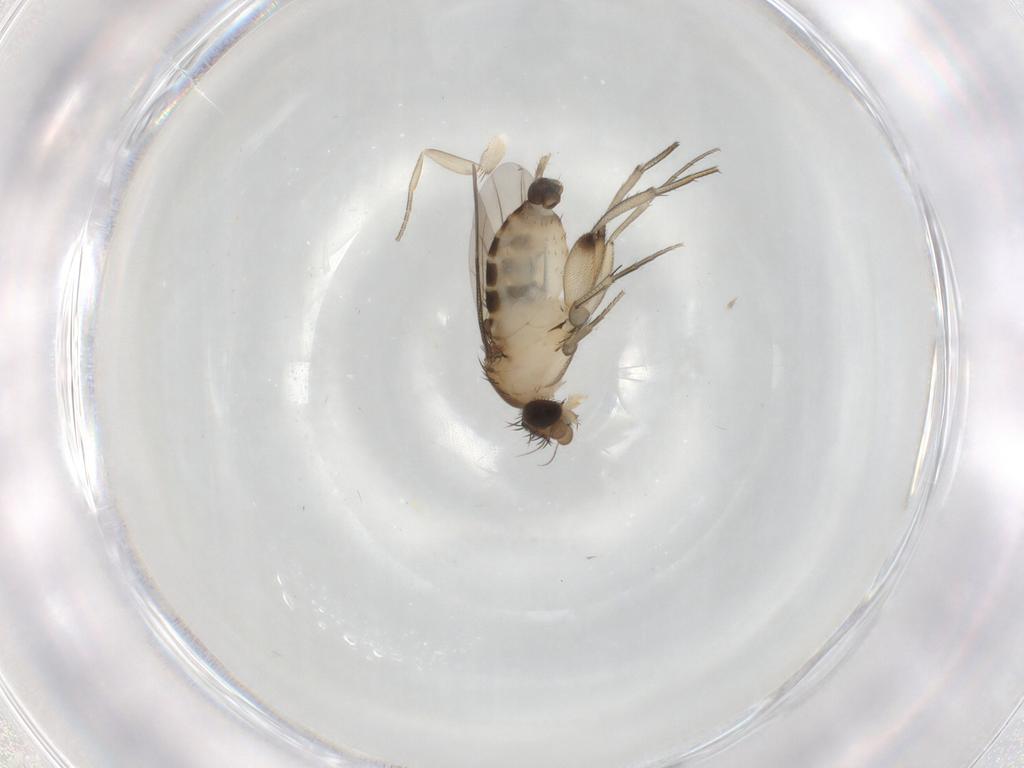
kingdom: Animalia
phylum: Arthropoda
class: Insecta
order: Diptera
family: Phoridae
